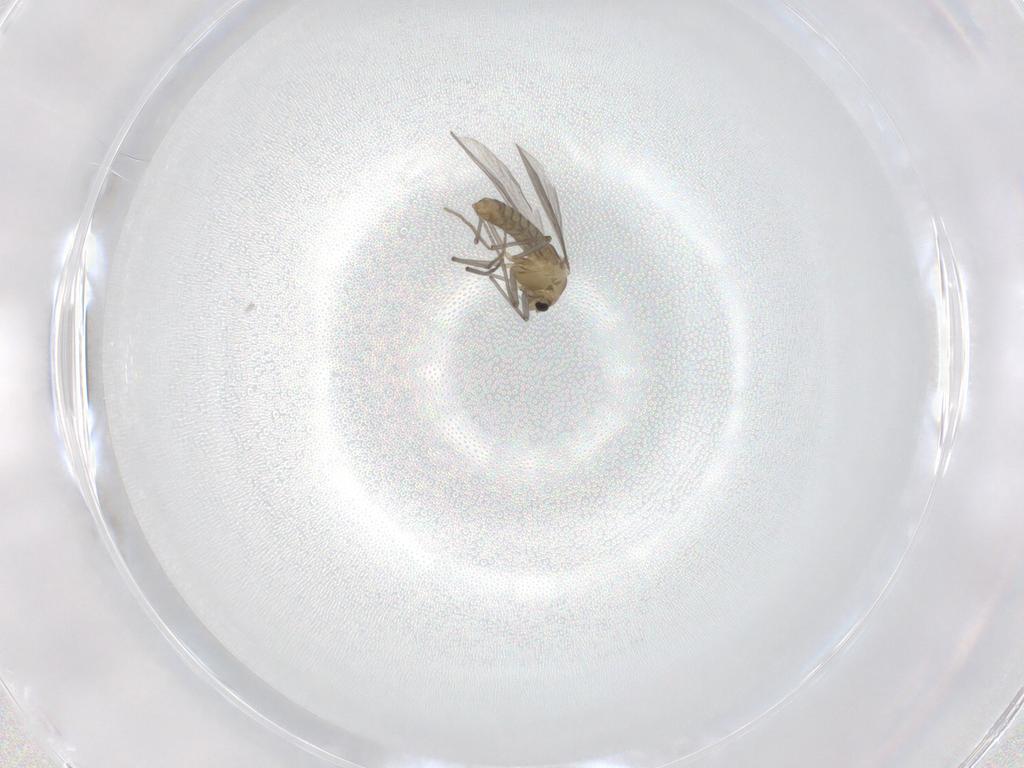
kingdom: Animalia
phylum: Arthropoda
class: Insecta
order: Diptera
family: Chironomidae
